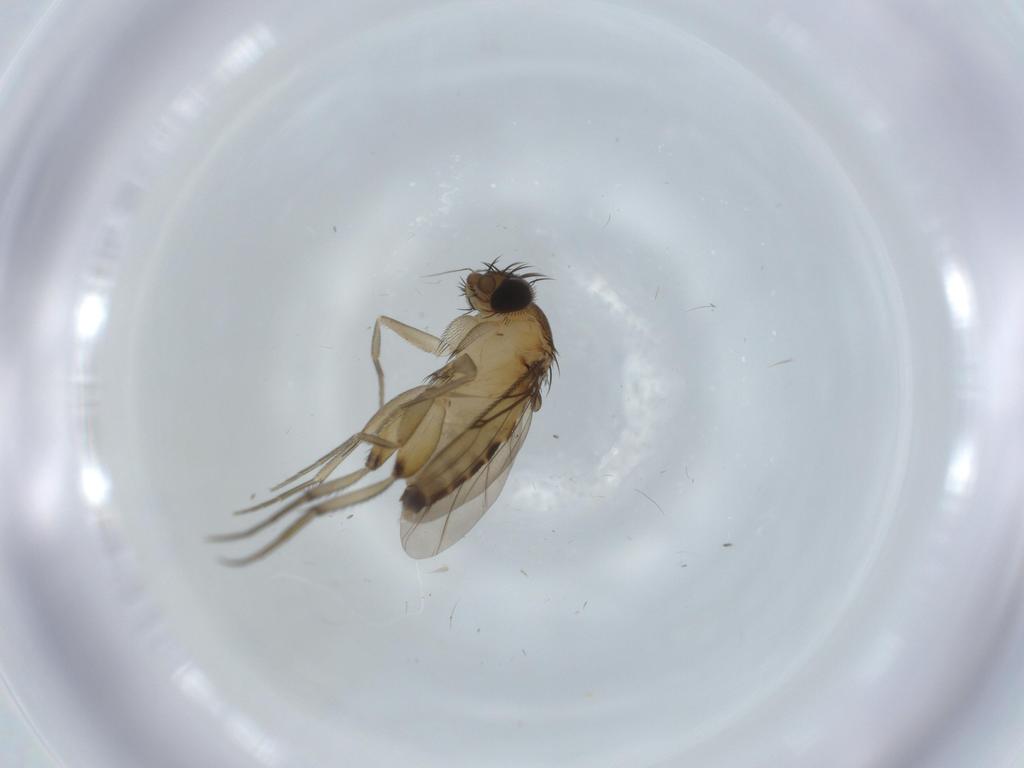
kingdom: Animalia
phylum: Arthropoda
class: Insecta
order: Diptera
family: Phoridae
